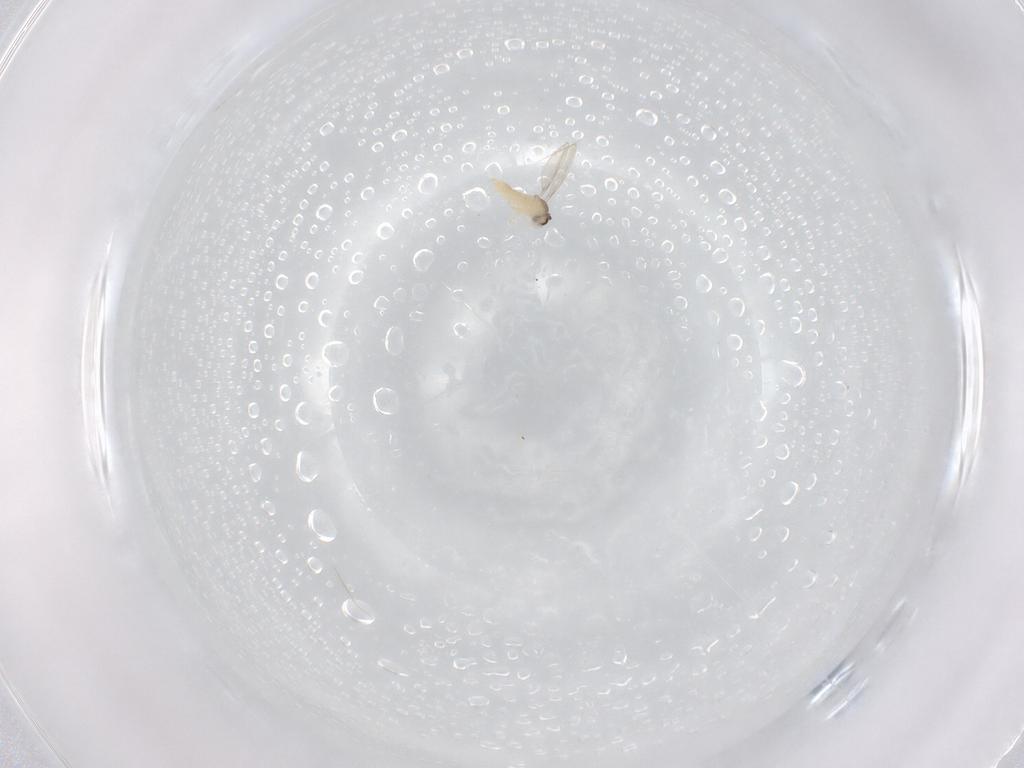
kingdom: Animalia
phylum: Arthropoda
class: Insecta
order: Diptera
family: Cecidomyiidae
